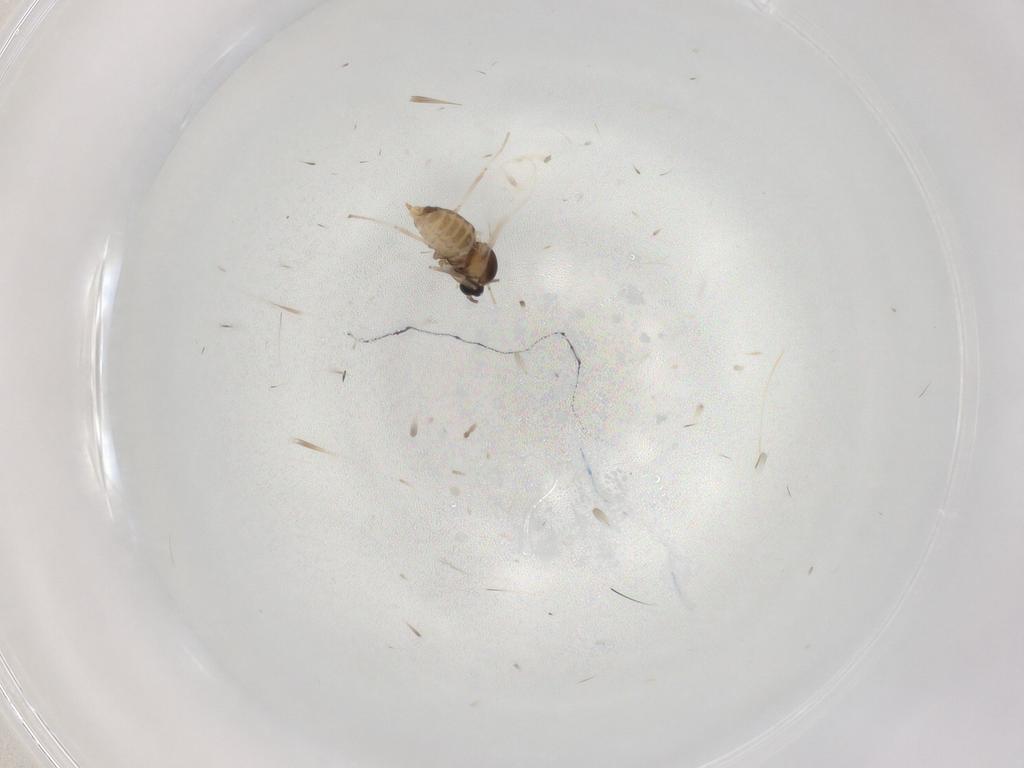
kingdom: Animalia
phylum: Arthropoda
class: Insecta
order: Diptera
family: Cecidomyiidae
